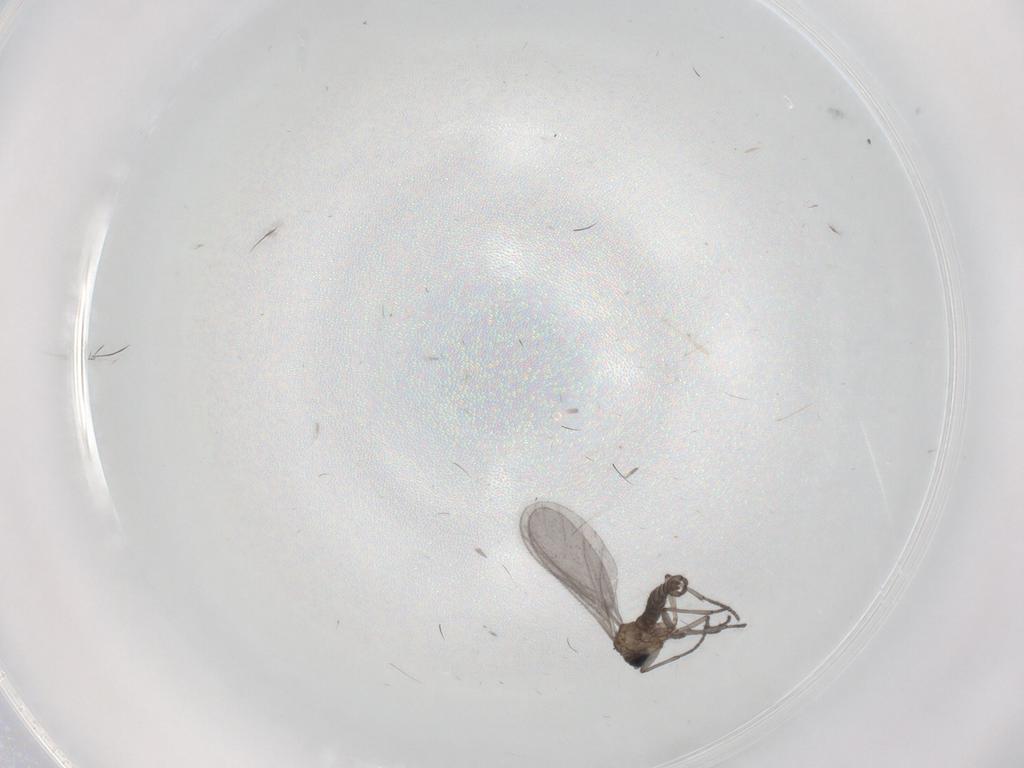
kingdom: Animalia
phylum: Arthropoda
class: Insecta
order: Diptera
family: Sciaridae
